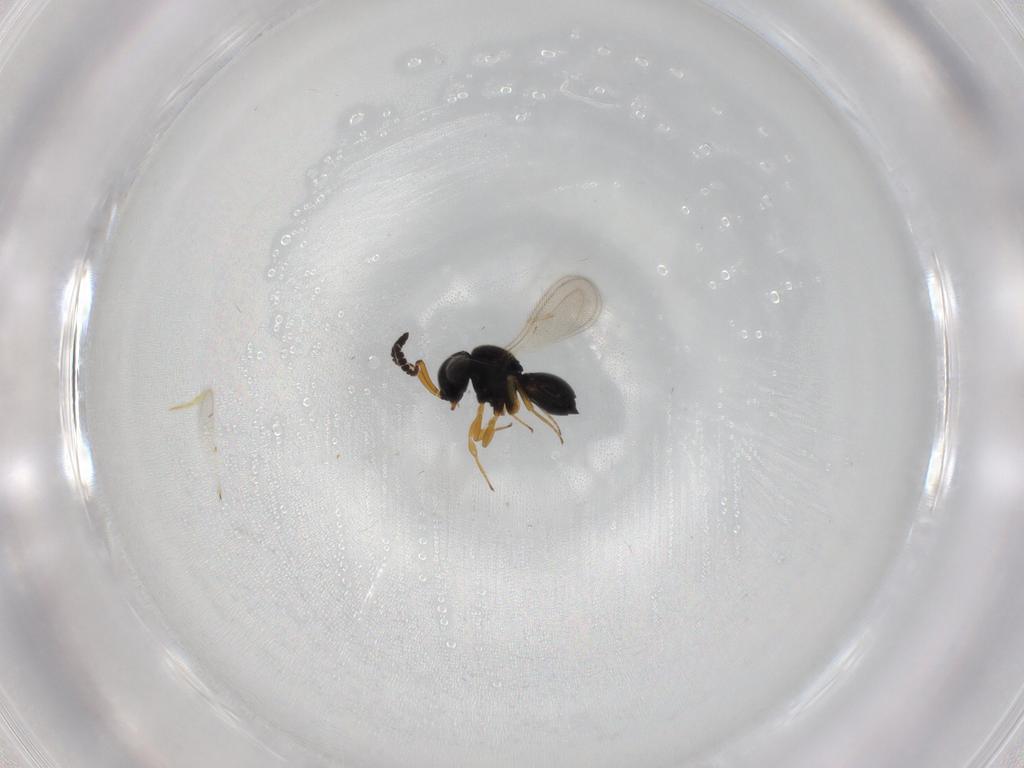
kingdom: Animalia
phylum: Arthropoda
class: Insecta
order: Hymenoptera
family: Scelionidae
